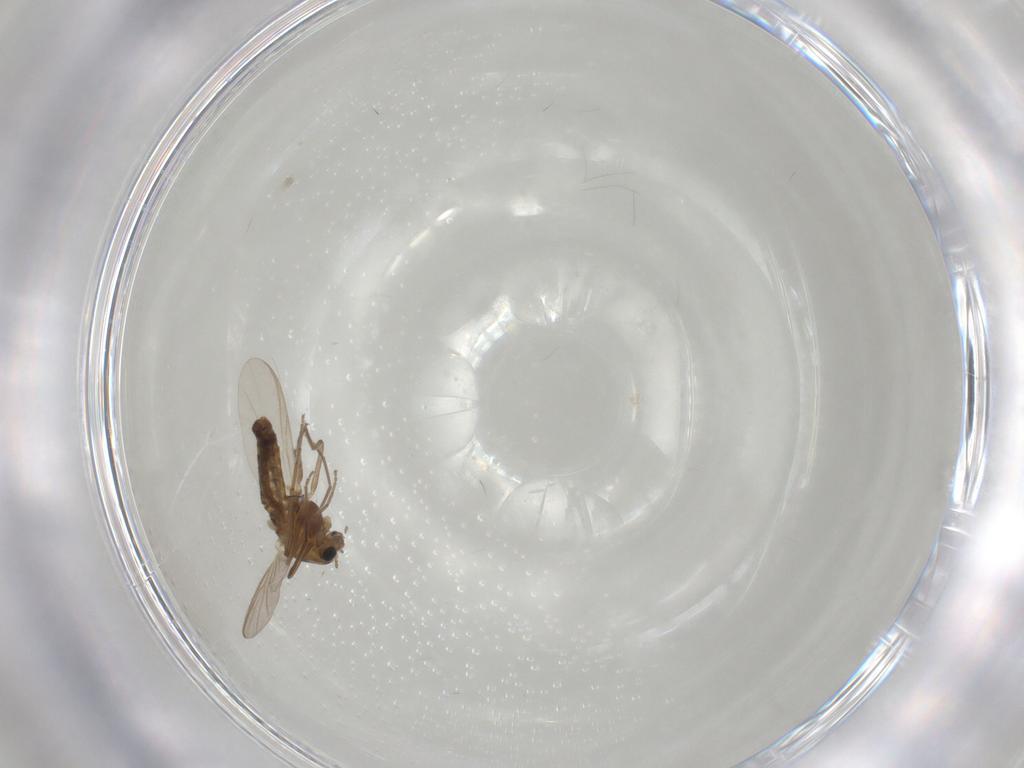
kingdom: Animalia
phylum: Arthropoda
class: Insecta
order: Diptera
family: Chironomidae
